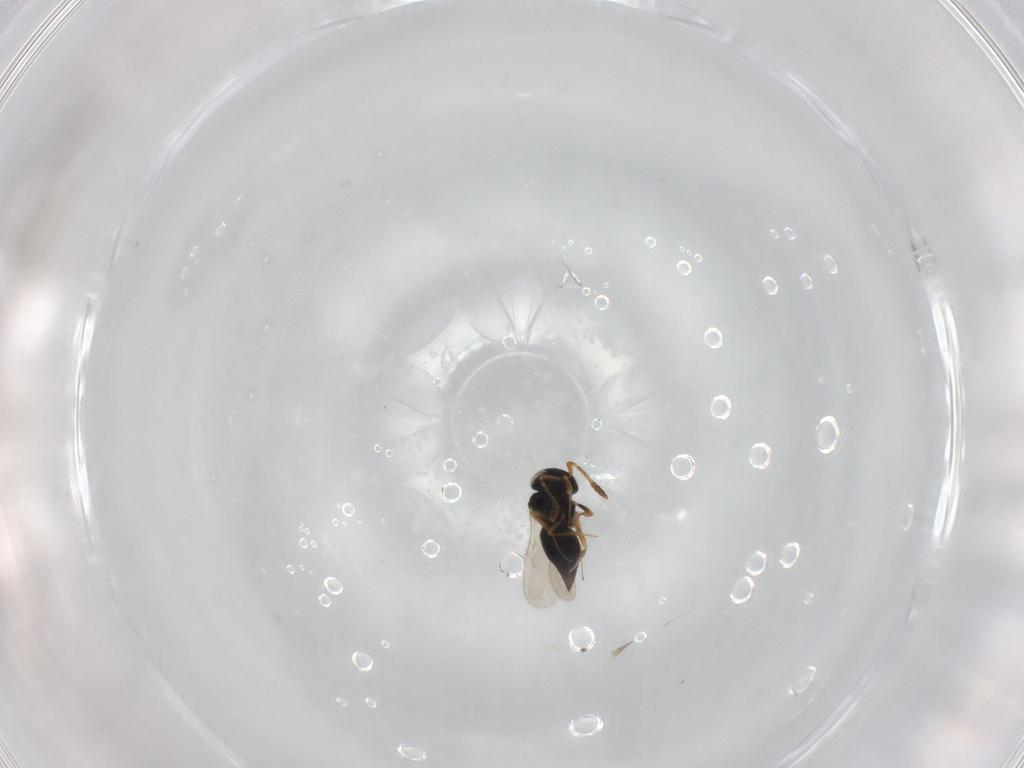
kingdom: Animalia
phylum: Arthropoda
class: Insecta
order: Hymenoptera
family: Scelionidae
